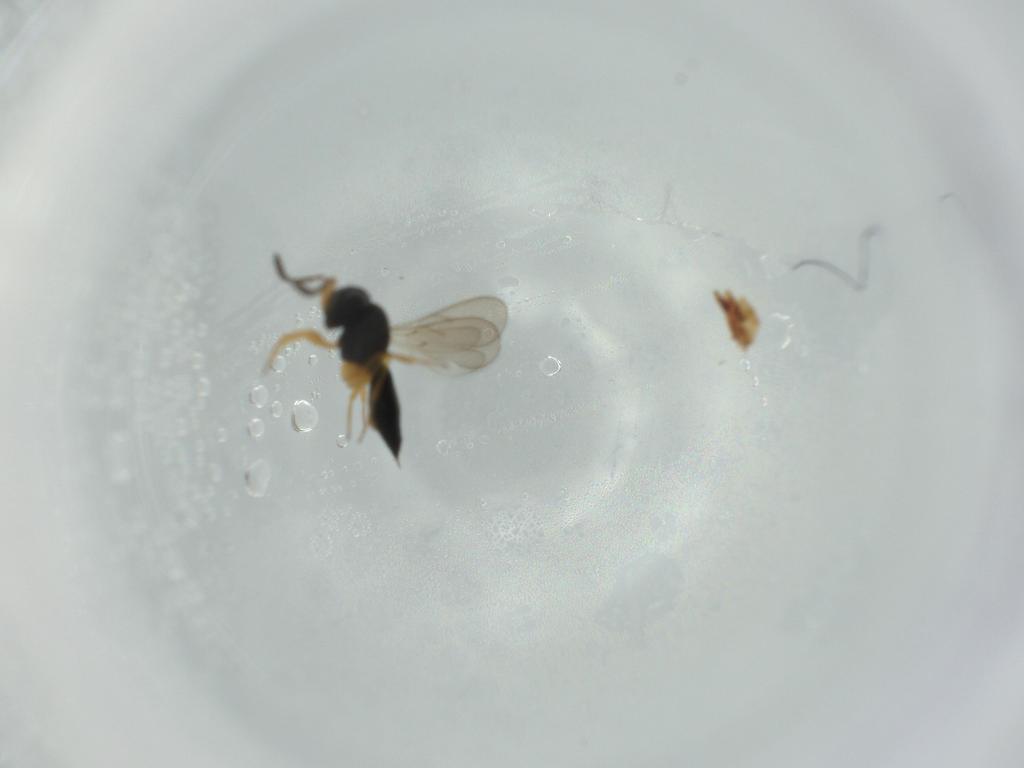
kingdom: Animalia
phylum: Arthropoda
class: Insecta
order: Hymenoptera
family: Scelionidae
